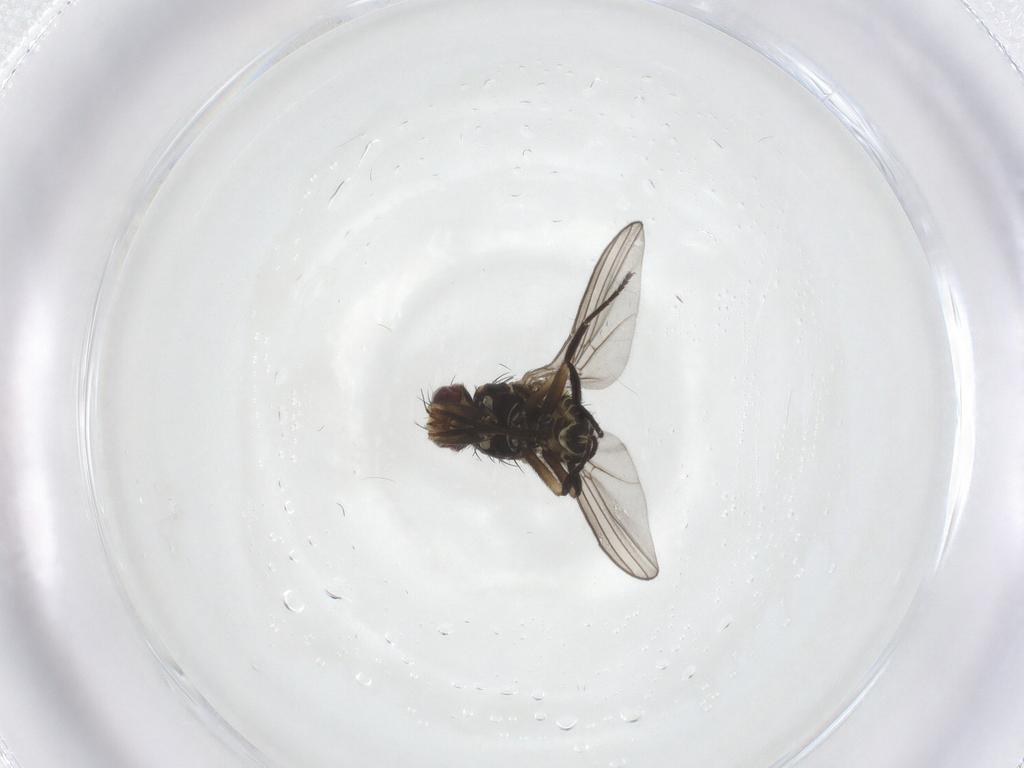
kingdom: Animalia
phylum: Arthropoda
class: Insecta
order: Diptera
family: Agromyzidae
